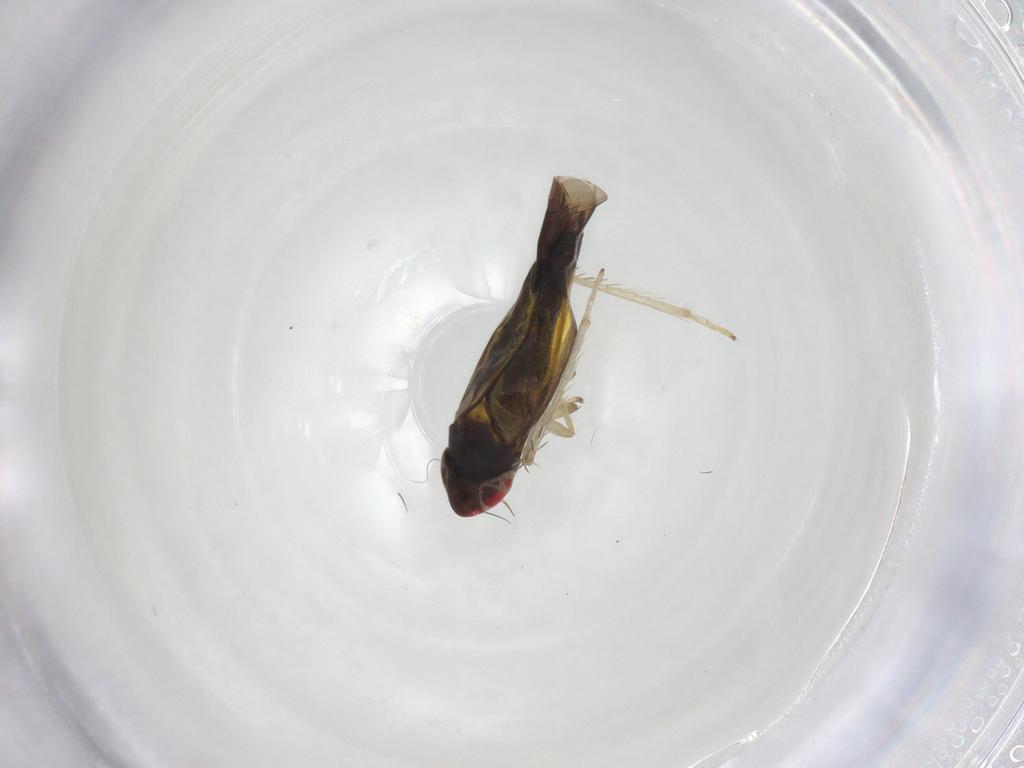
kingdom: Animalia
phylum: Arthropoda
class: Insecta
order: Hemiptera
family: Cicadellidae
